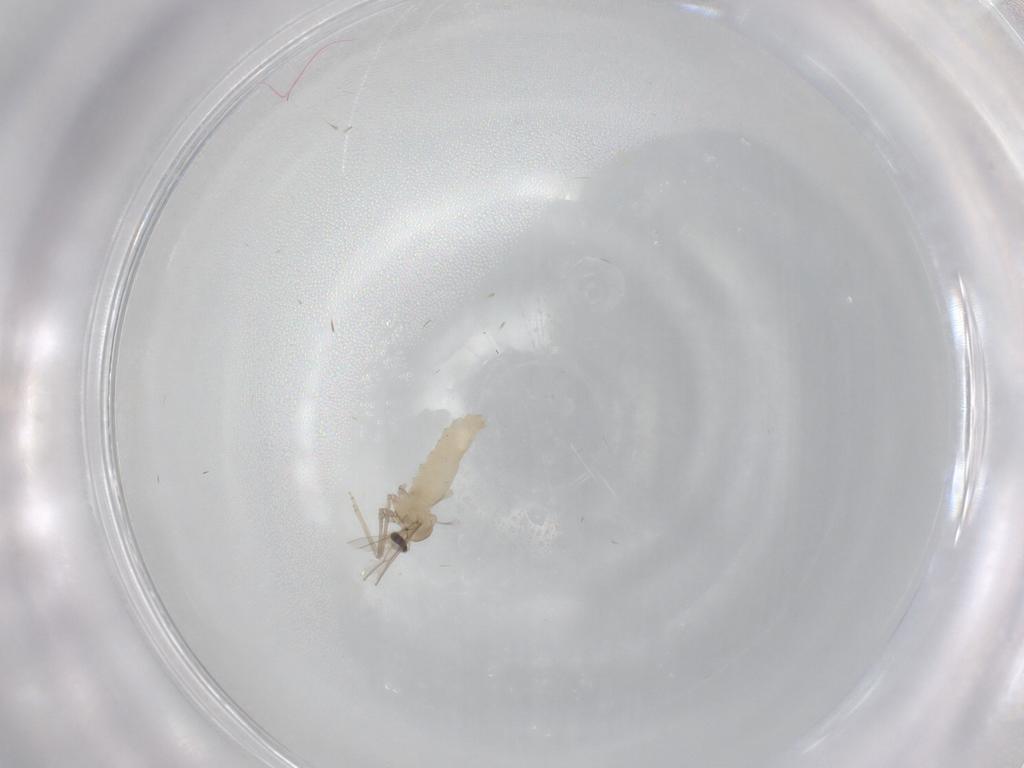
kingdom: Animalia
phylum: Arthropoda
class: Insecta
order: Diptera
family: Cecidomyiidae
